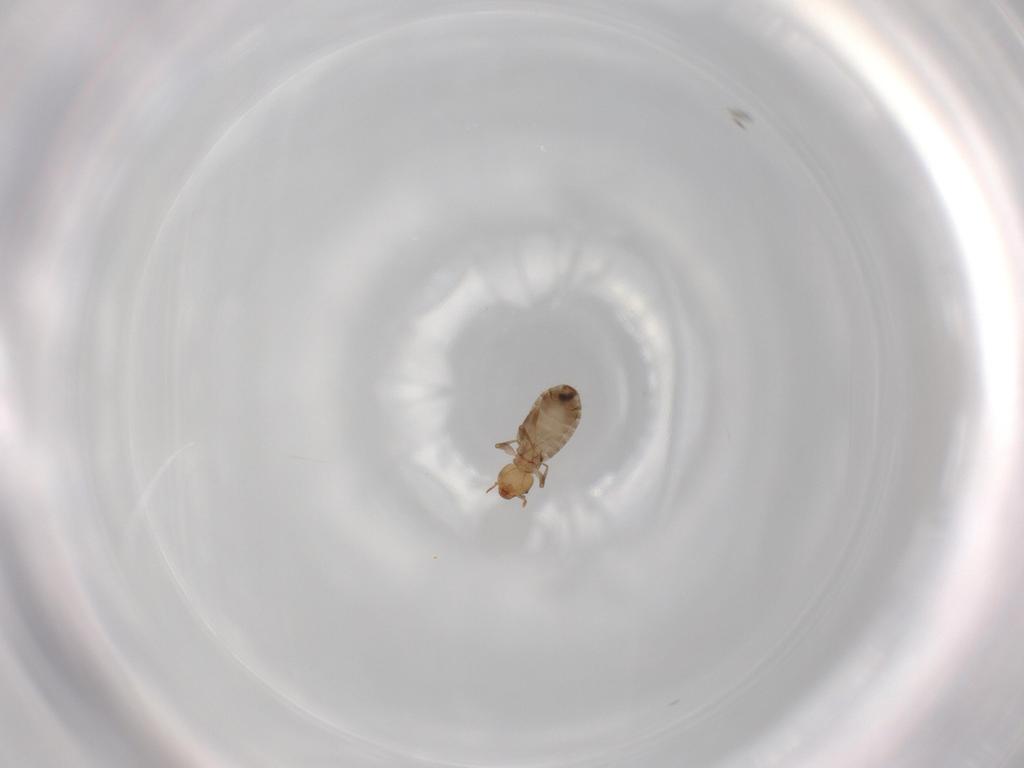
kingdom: Animalia
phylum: Arthropoda
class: Insecta
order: Psocodea
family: Liposcelididae
